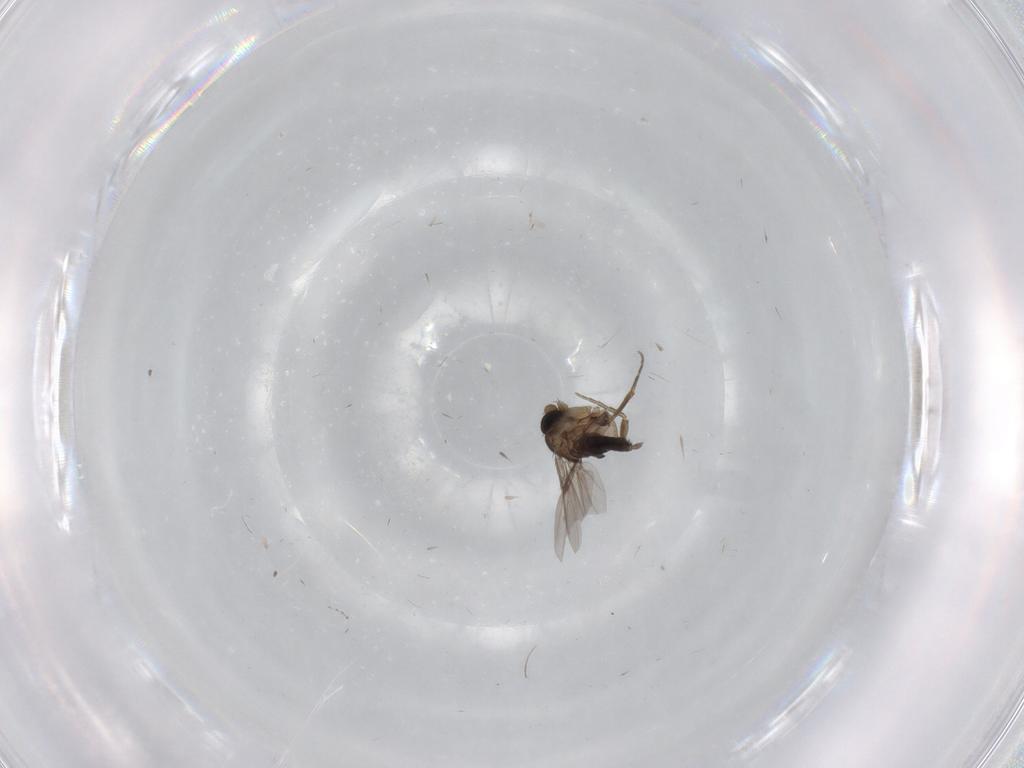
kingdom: Animalia
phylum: Arthropoda
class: Insecta
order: Diptera
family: Phoridae
